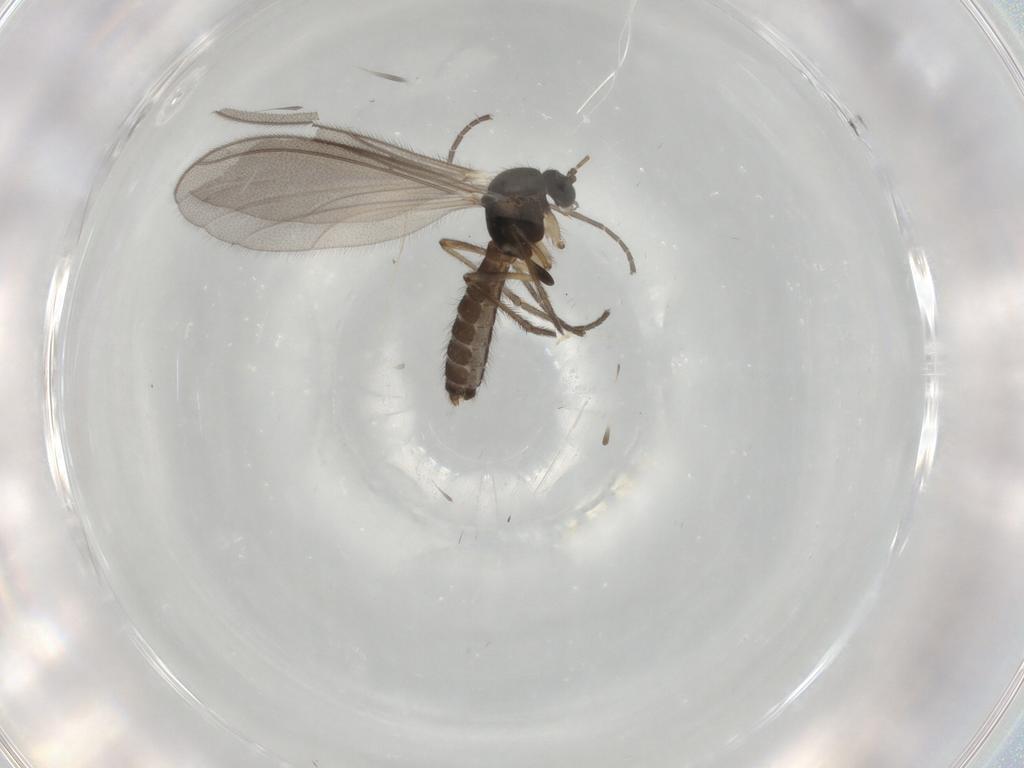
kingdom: Animalia
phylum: Arthropoda
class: Insecta
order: Diptera
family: Mycetophilidae
